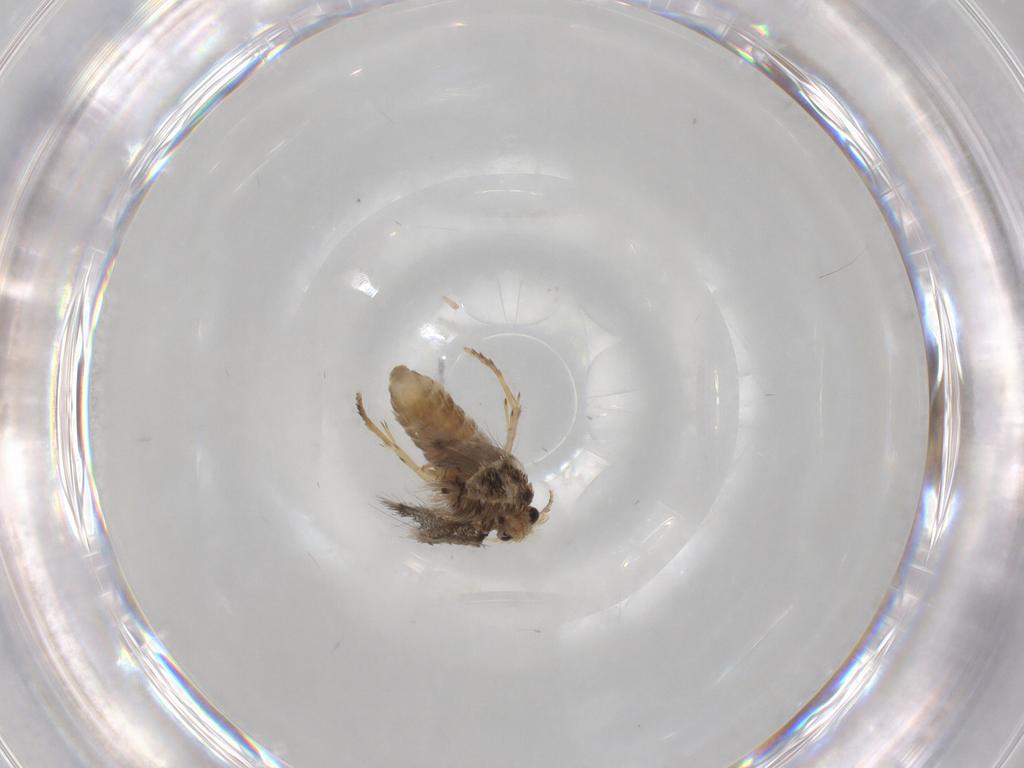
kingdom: Animalia
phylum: Arthropoda
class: Insecta
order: Lepidoptera
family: Nepticulidae
